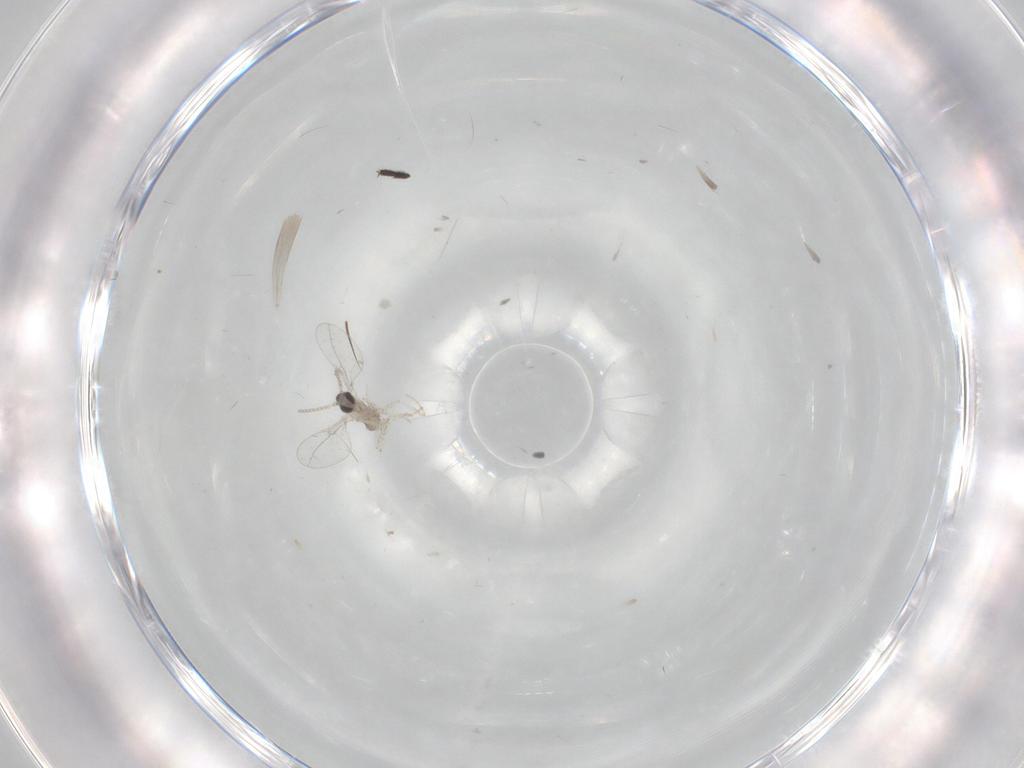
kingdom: Animalia
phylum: Arthropoda
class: Insecta
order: Diptera
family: Cecidomyiidae
